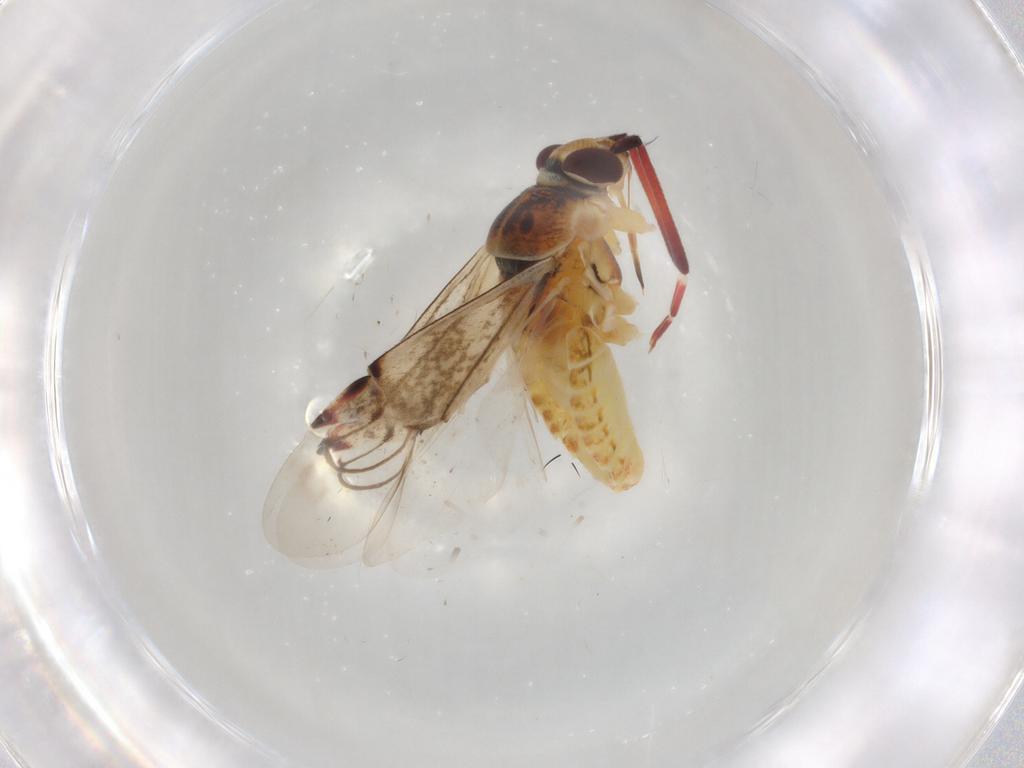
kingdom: Animalia
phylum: Arthropoda
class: Insecta
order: Hemiptera
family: Miridae
